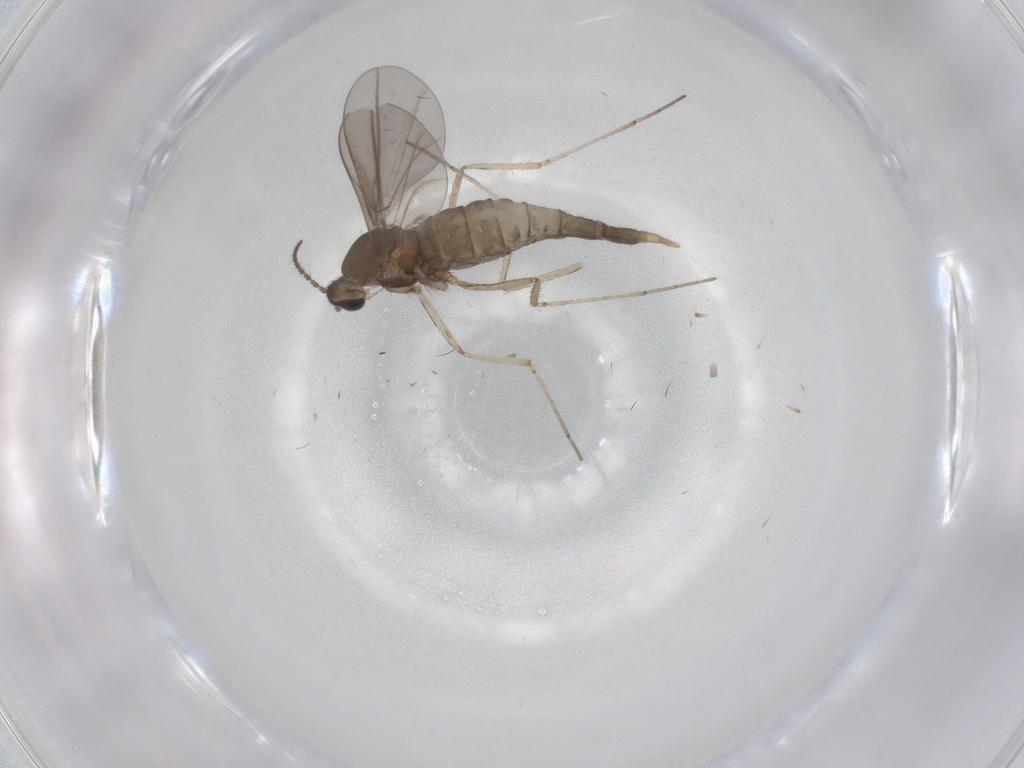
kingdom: Animalia
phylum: Arthropoda
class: Insecta
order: Diptera
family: Cecidomyiidae
